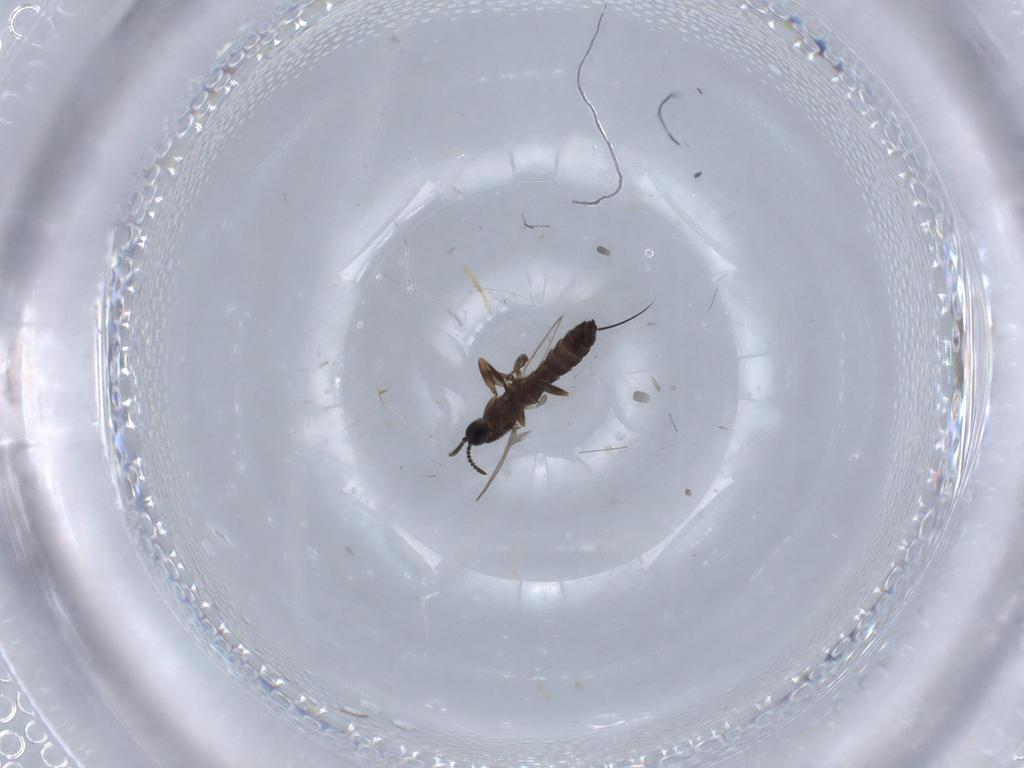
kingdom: Animalia
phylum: Arthropoda
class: Insecta
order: Diptera
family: Scatopsidae
